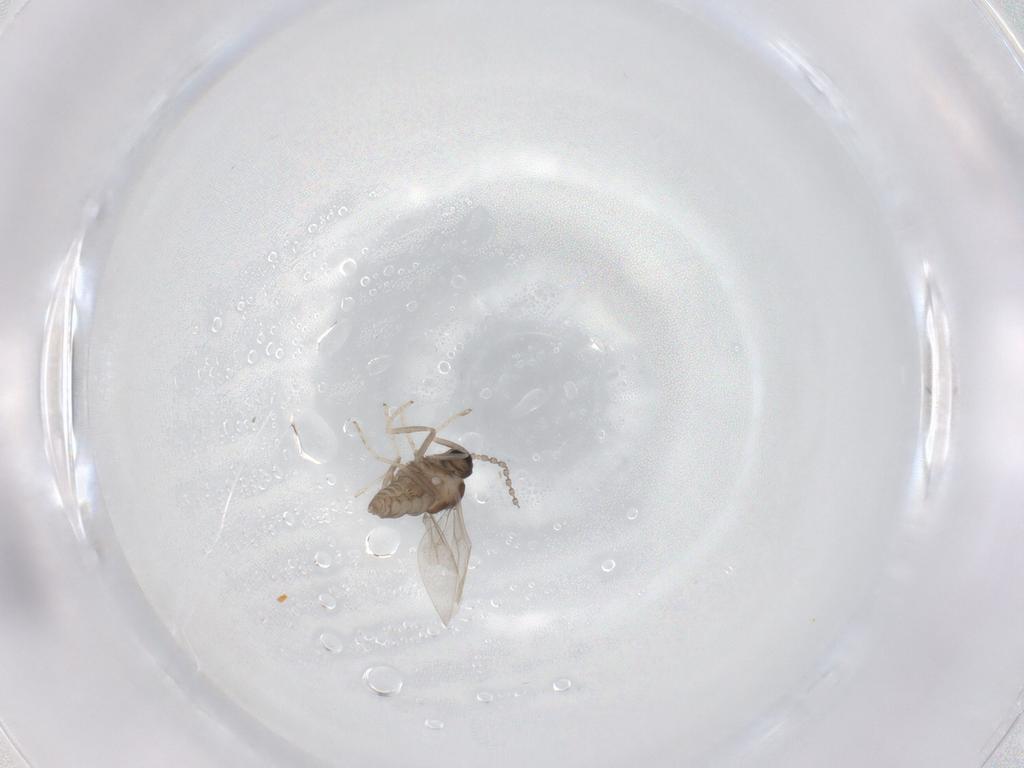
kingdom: Animalia
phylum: Arthropoda
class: Insecta
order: Diptera
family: Cecidomyiidae
